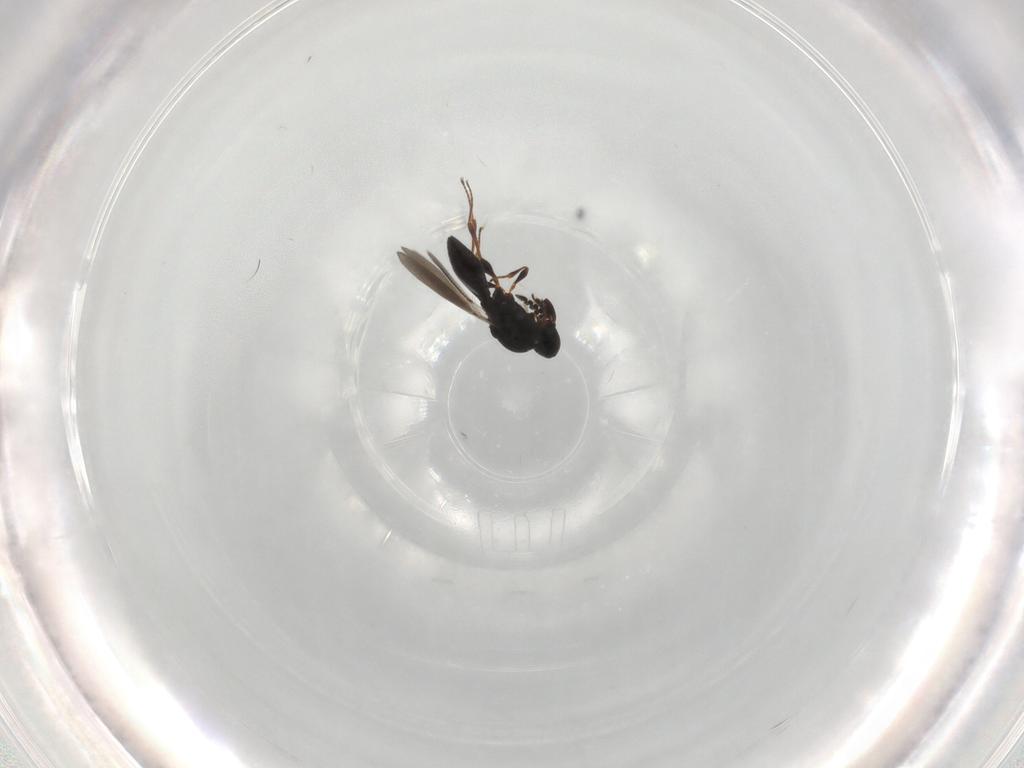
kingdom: Animalia
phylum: Arthropoda
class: Insecta
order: Hymenoptera
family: Platygastridae
